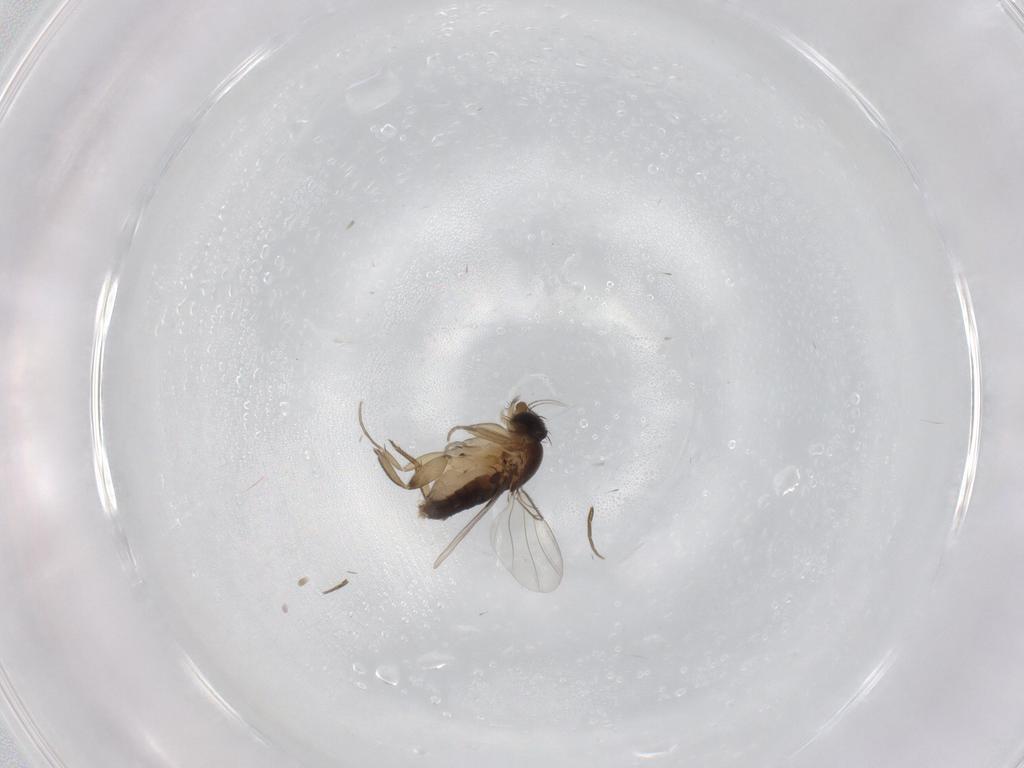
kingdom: Animalia
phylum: Arthropoda
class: Insecta
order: Diptera
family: Phoridae
